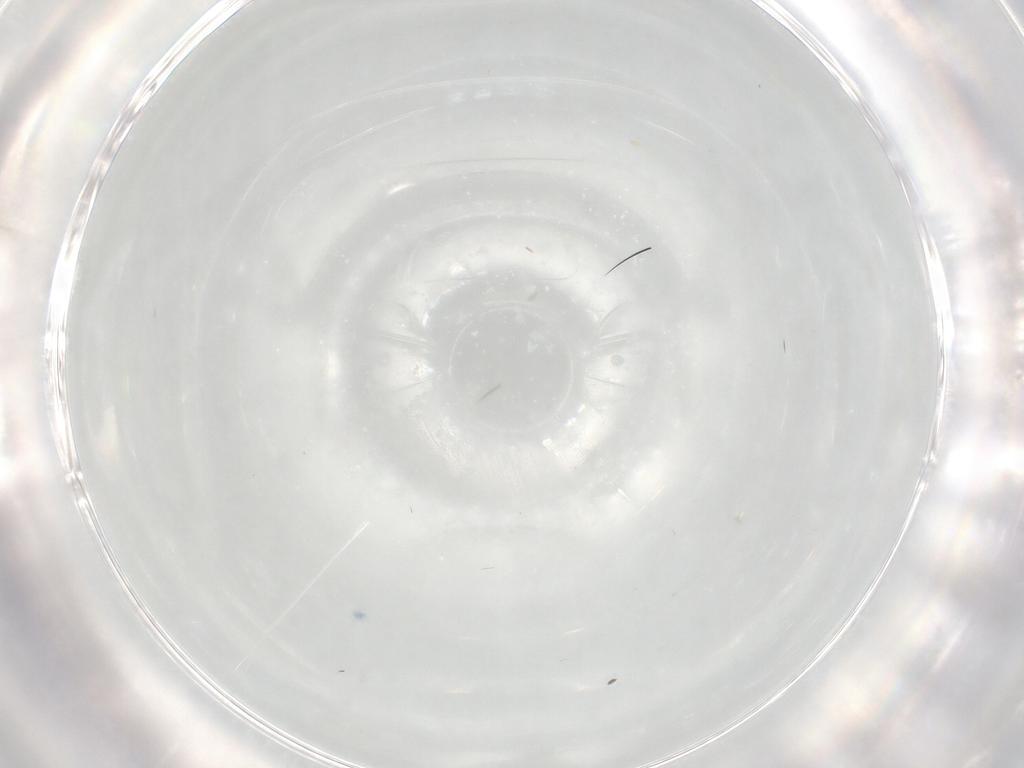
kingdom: Animalia
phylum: Arthropoda
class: Insecta
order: Diptera
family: Chironomidae
